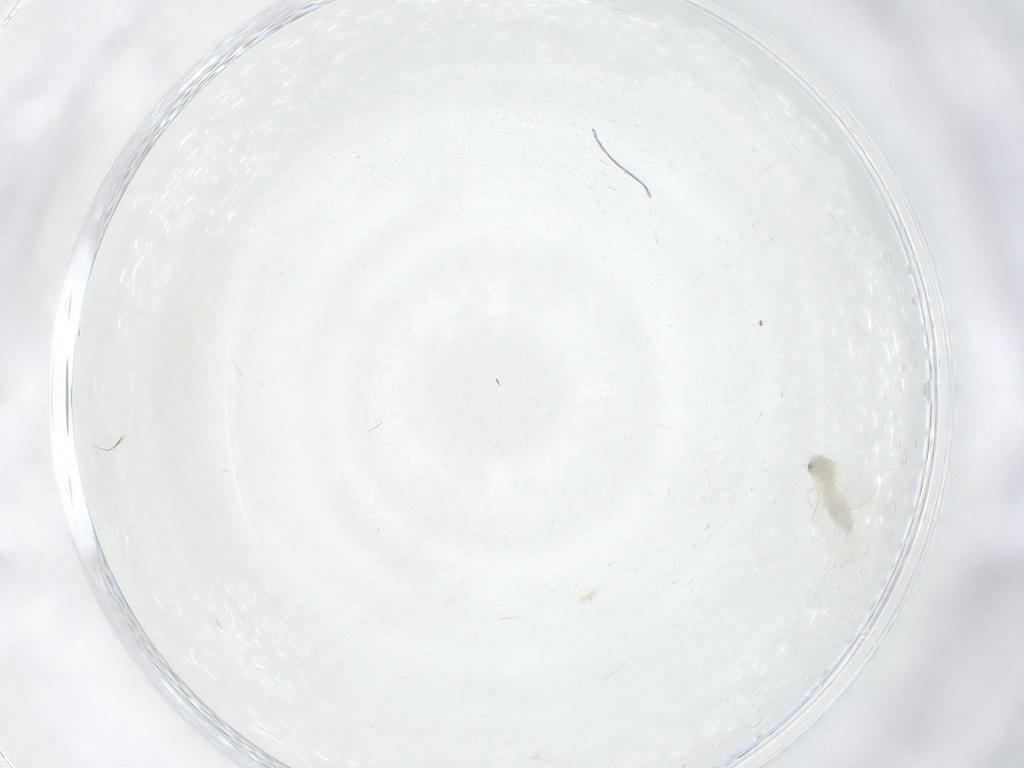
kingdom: Animalia
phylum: Arthropoda
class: Insecta
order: Hemiptera
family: Aleyrodidae
